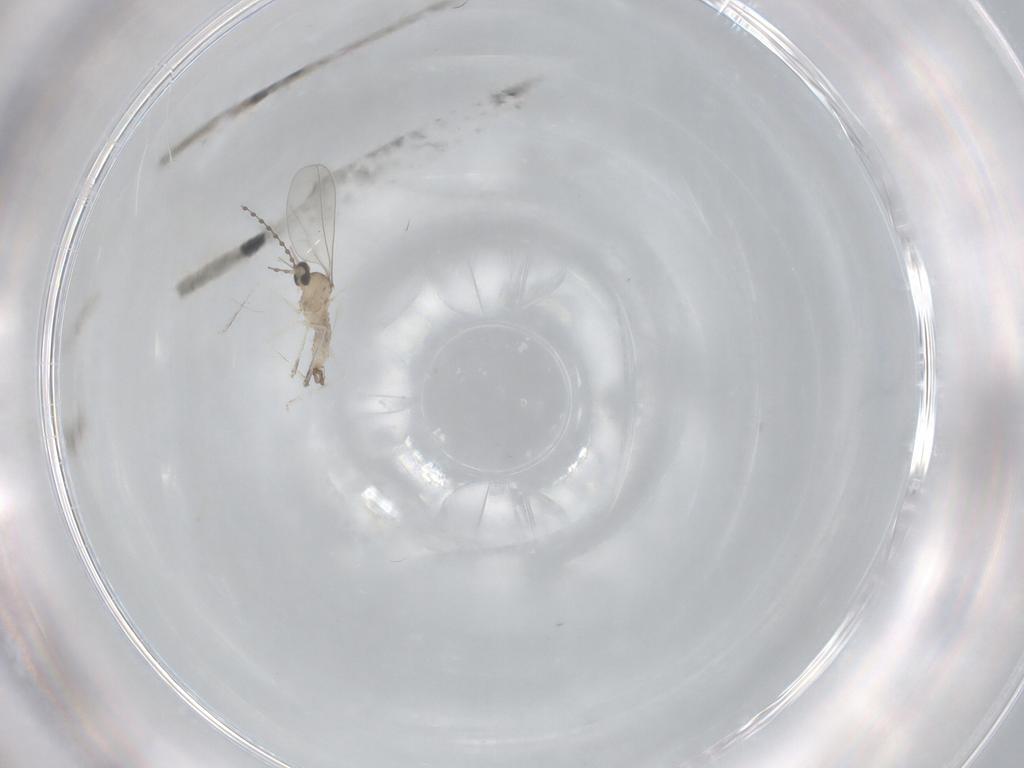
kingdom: Animalia
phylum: Arthropoda
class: Insecta
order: Diptera
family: Cecidomyiidae
